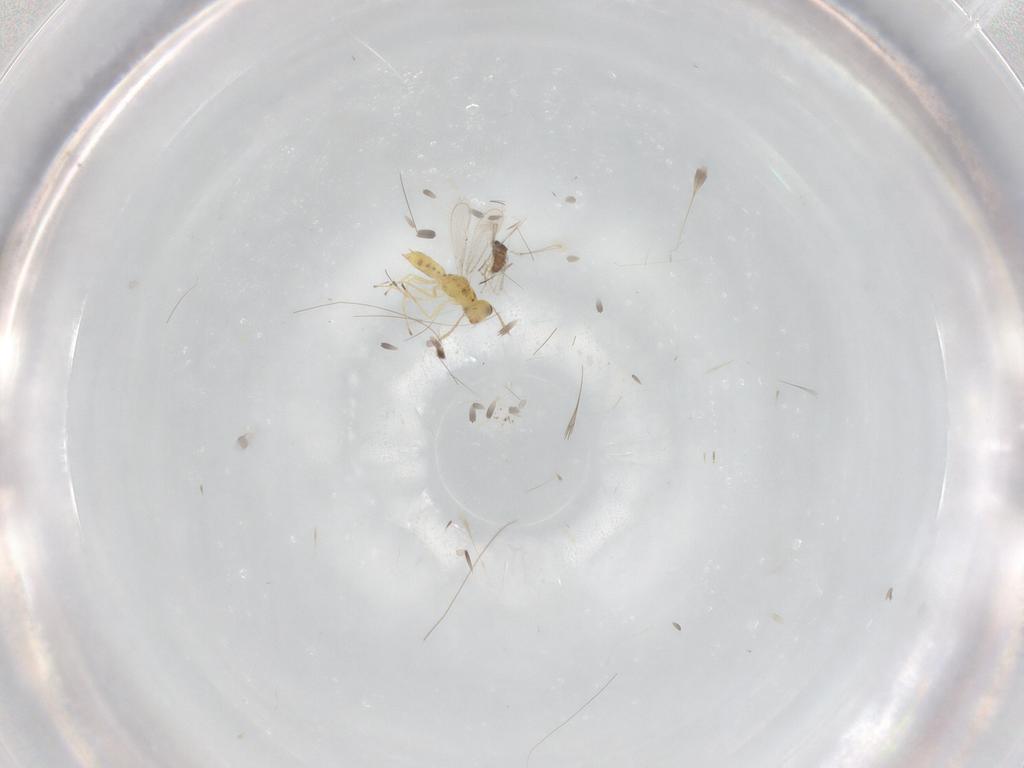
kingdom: Animalia
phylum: Arthropoda
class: Insecta
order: Hymenoptera
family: Eulophidae
